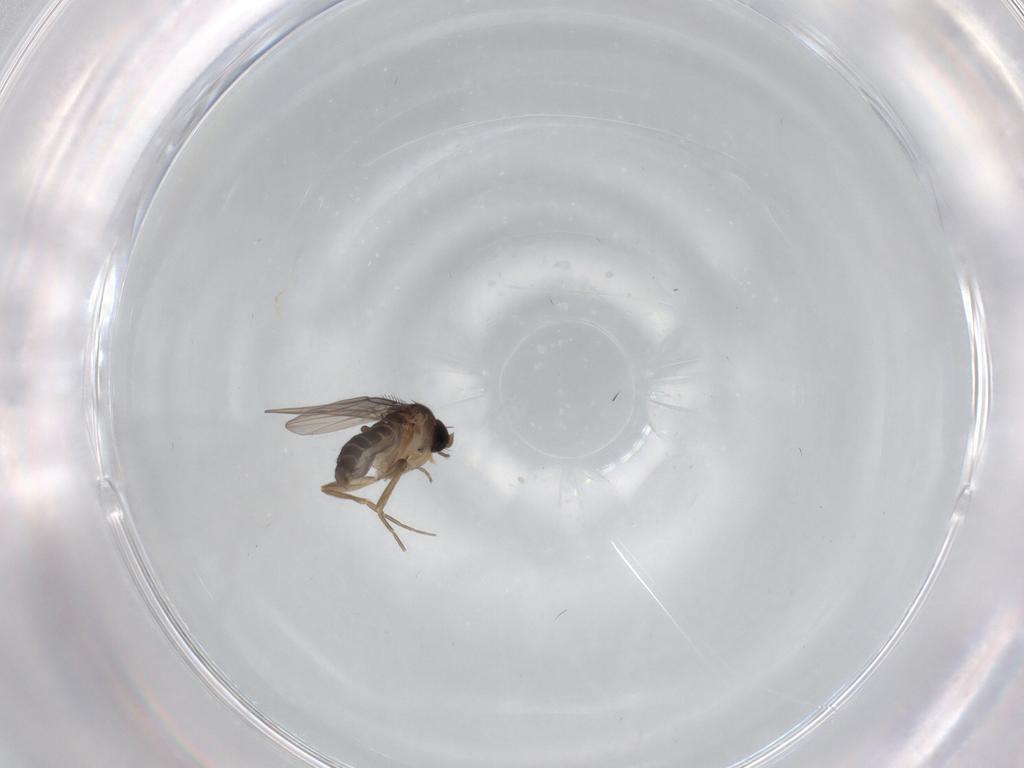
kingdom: Animalia
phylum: Arthropoda
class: Insecta
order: Diptera
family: Phoridae
